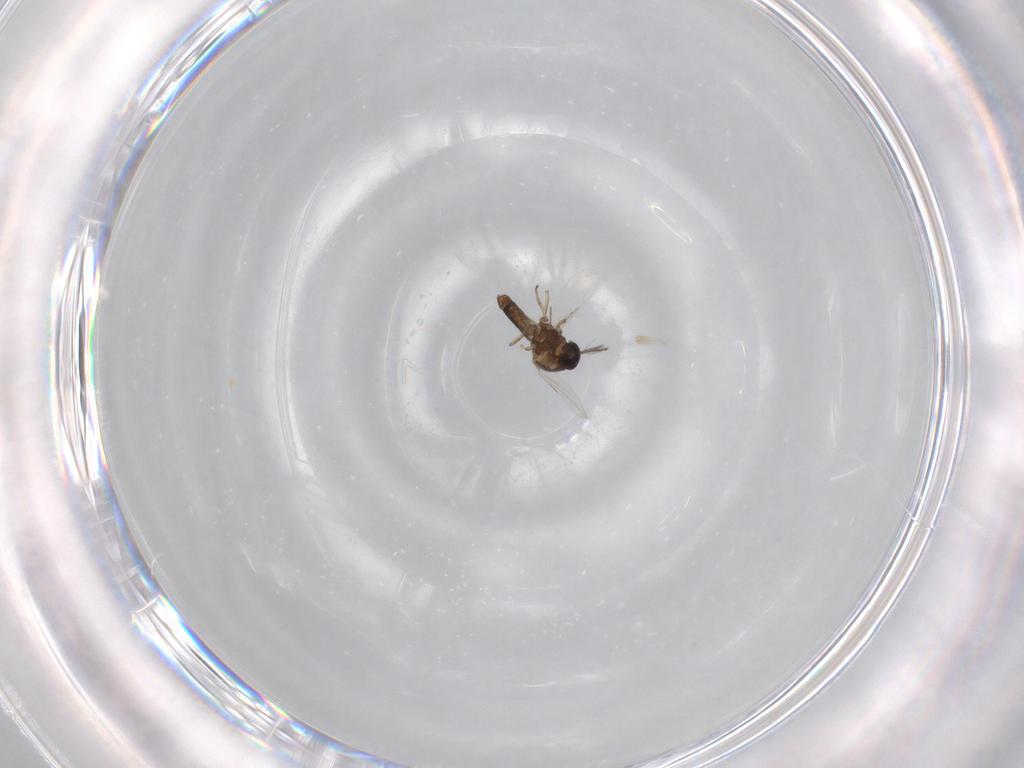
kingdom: Animalia
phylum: Arthropoda
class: Insecta
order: Diptera
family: Ceratopogonidae
